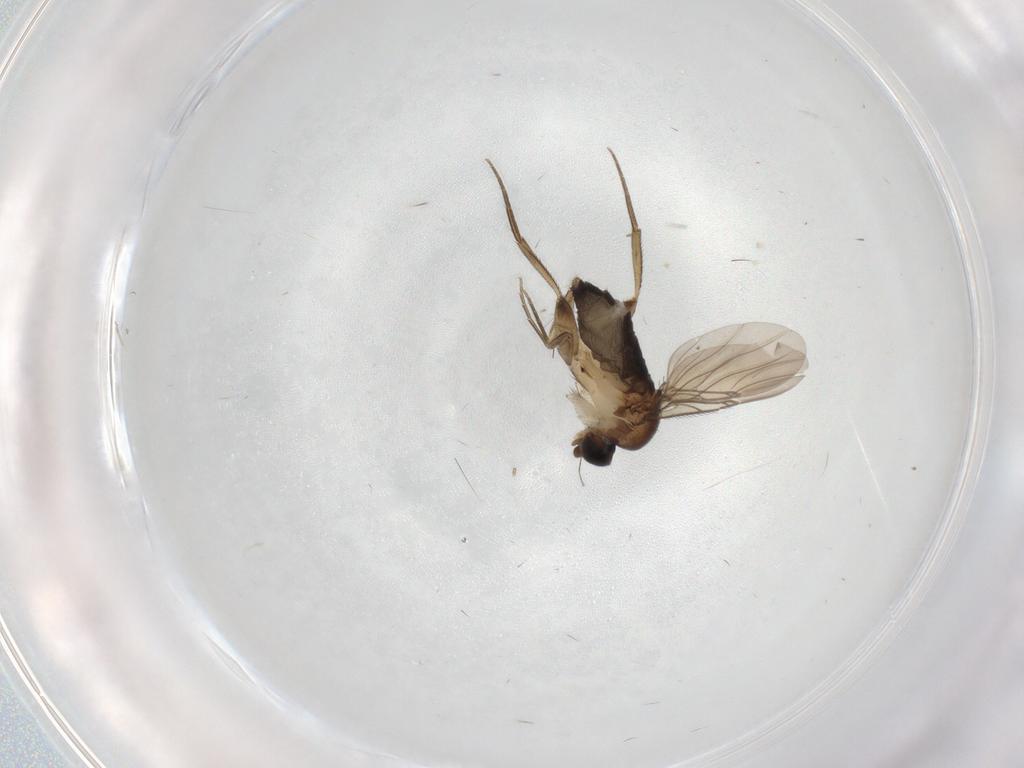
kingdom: Animalia
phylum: Arthropoda
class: Insecta
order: Diptera
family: Phoridae
